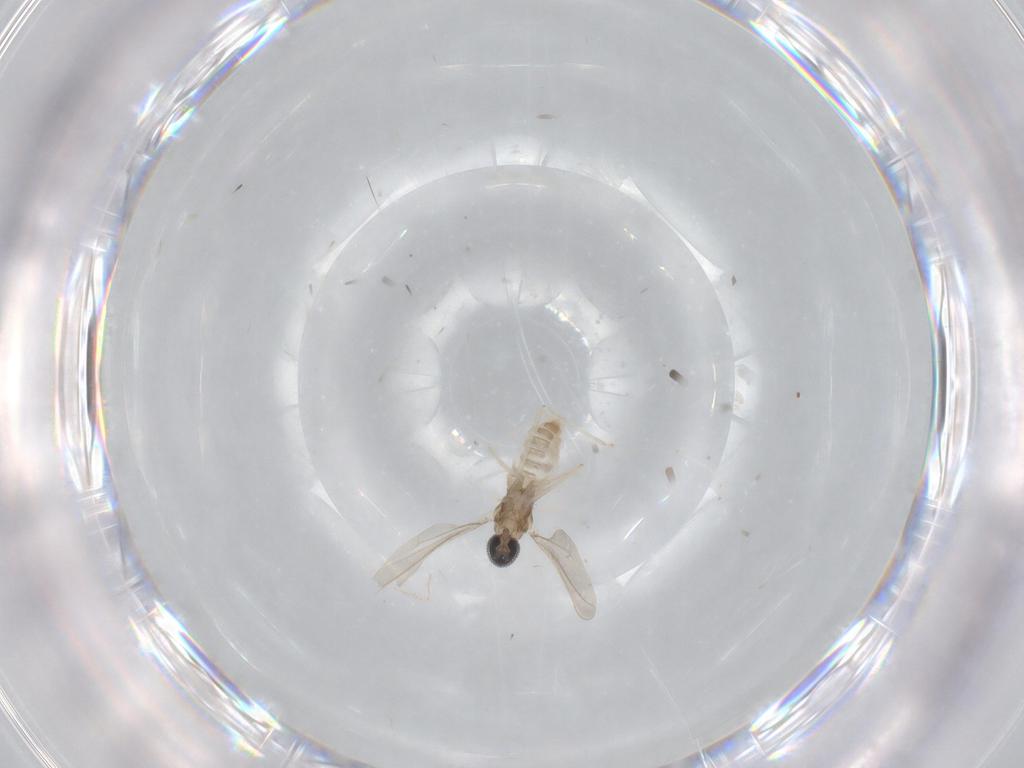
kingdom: Animalia
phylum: Arthropoda
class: Insecta
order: Diptera
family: Cecidomyiidae
